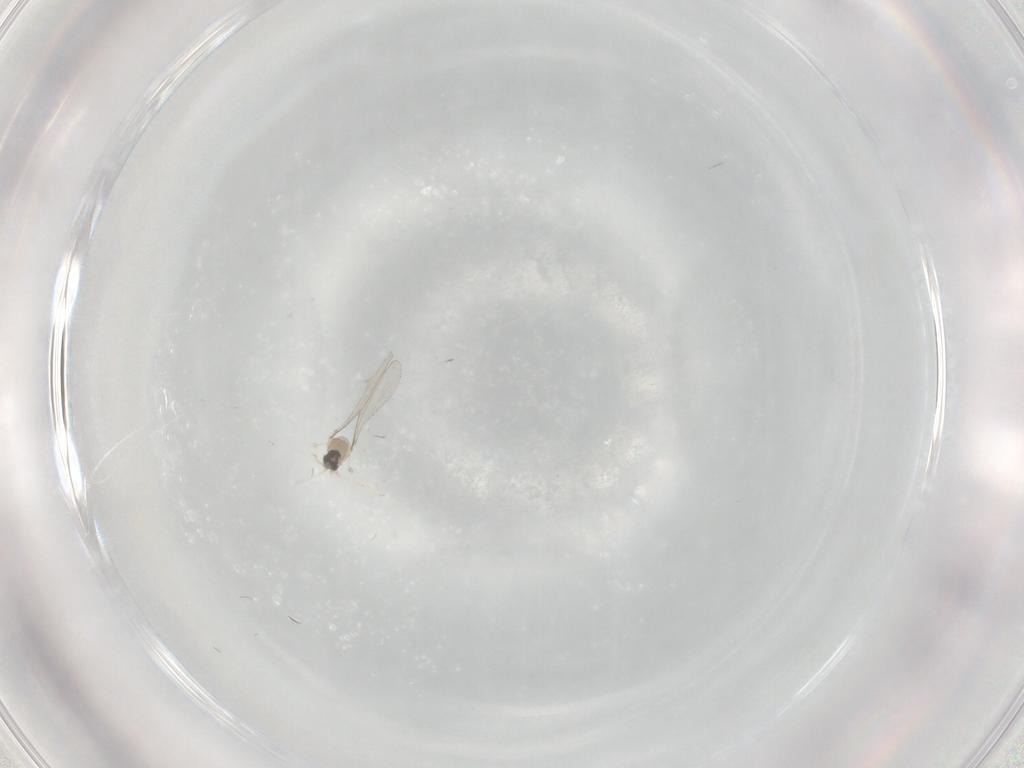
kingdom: Animalia
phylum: Arthropoda
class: Insecta
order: Diptera
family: Cecidomyiidae
